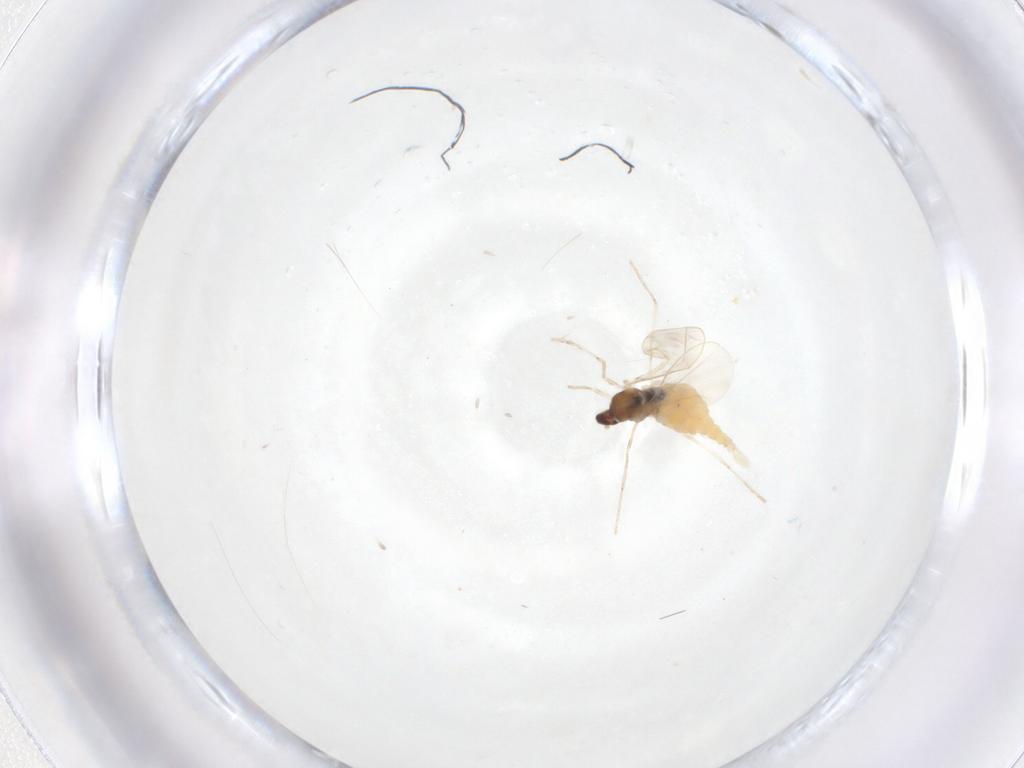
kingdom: Animalia
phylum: Arthropoda
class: Insecta
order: Diptera
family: Cecidomyiidae
